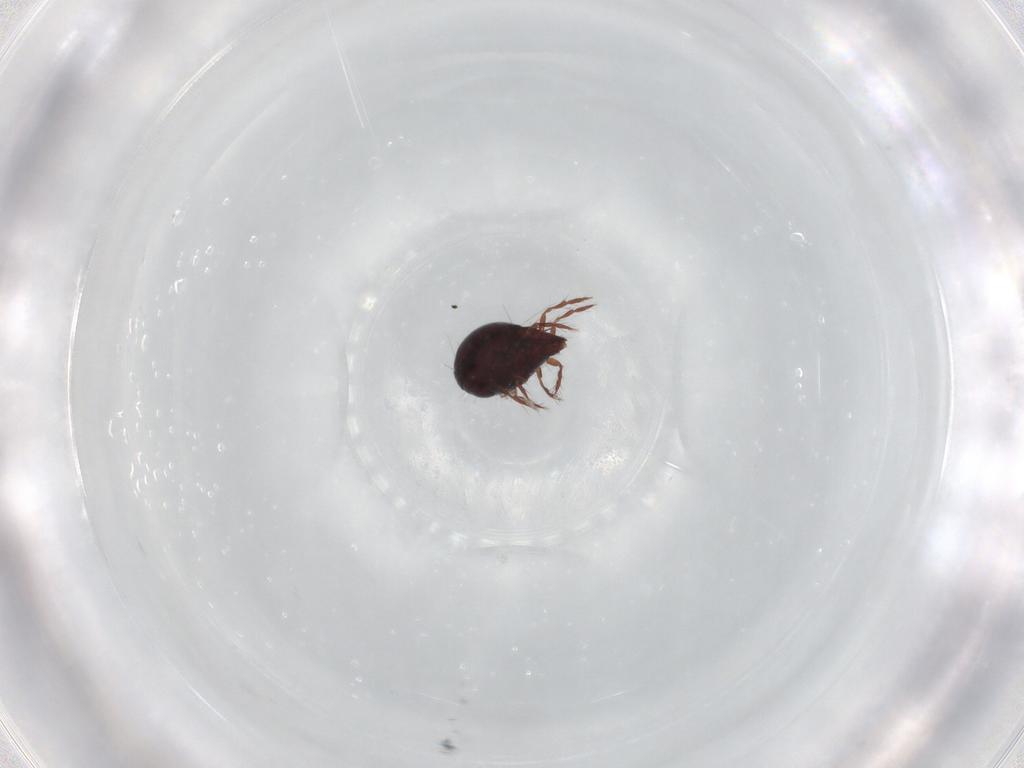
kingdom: Animalia
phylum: Arthropoda
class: Arachnida
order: Sarcoptiformes
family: Ceratoppiidae
